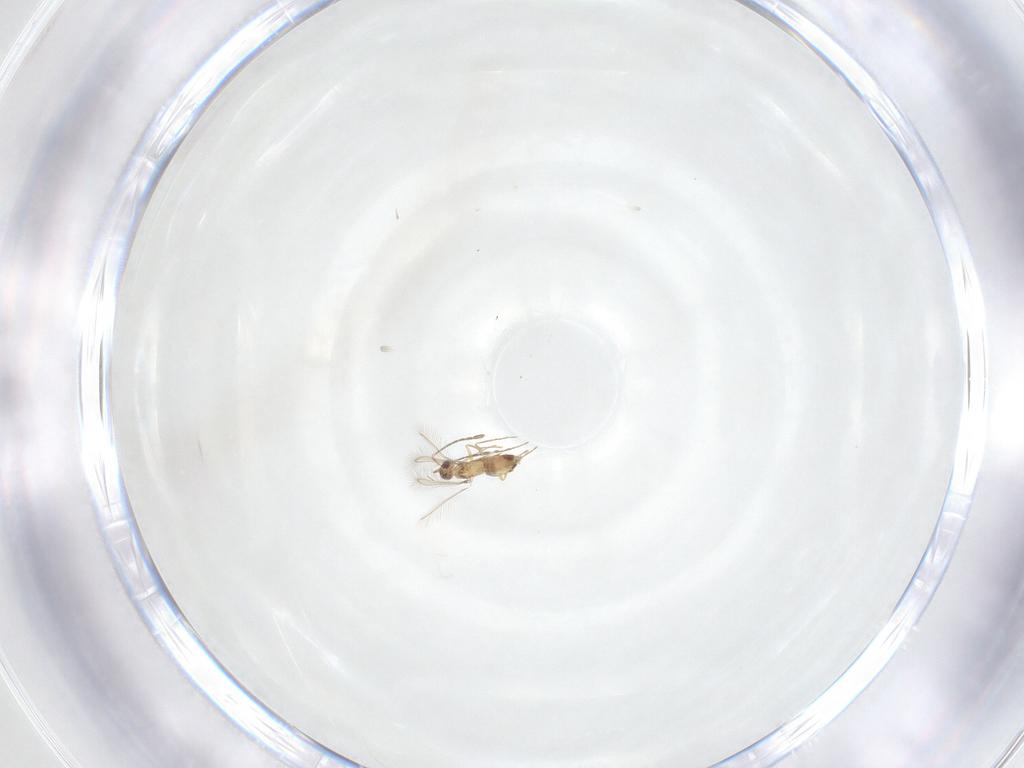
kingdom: Animalia
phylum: Arthropoda
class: Insecta
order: Hymenoptera
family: Mymaridae
